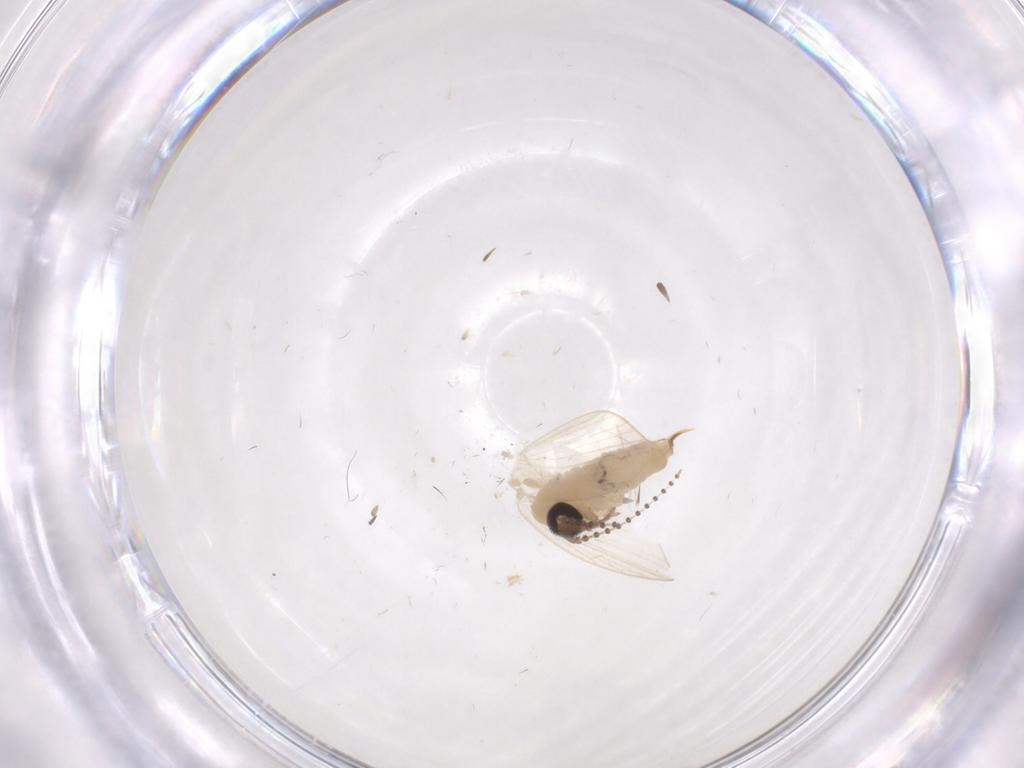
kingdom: Animalia
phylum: Arthropoda
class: Insecta
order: Diptera
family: Psychodidae
